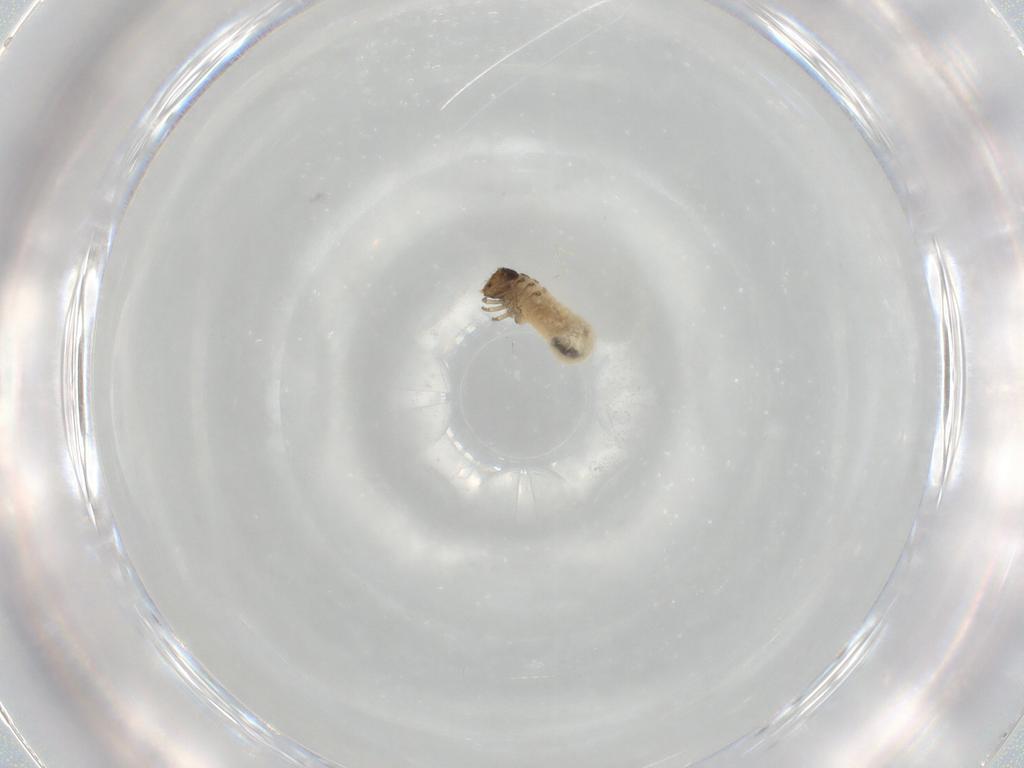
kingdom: Animalia
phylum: Arthropoda
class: Insecta
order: Coleoptera
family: Chrysomelidae
